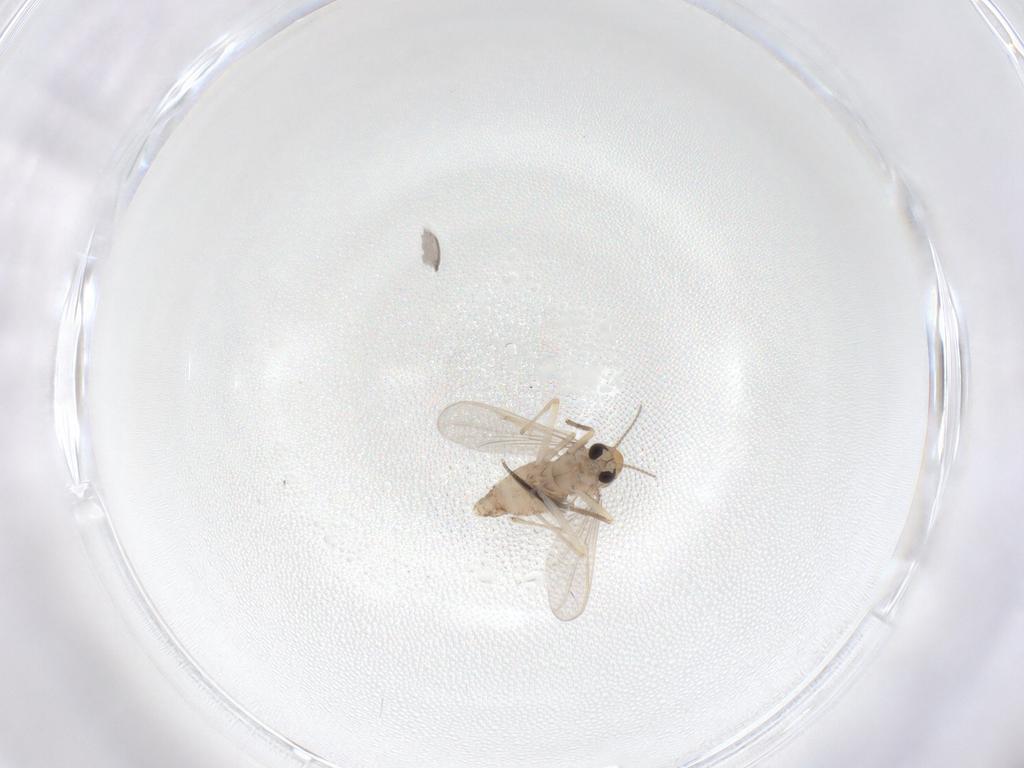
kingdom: Animalia
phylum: Arthropoda
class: Insecta
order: Diptera
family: Chironomidae
